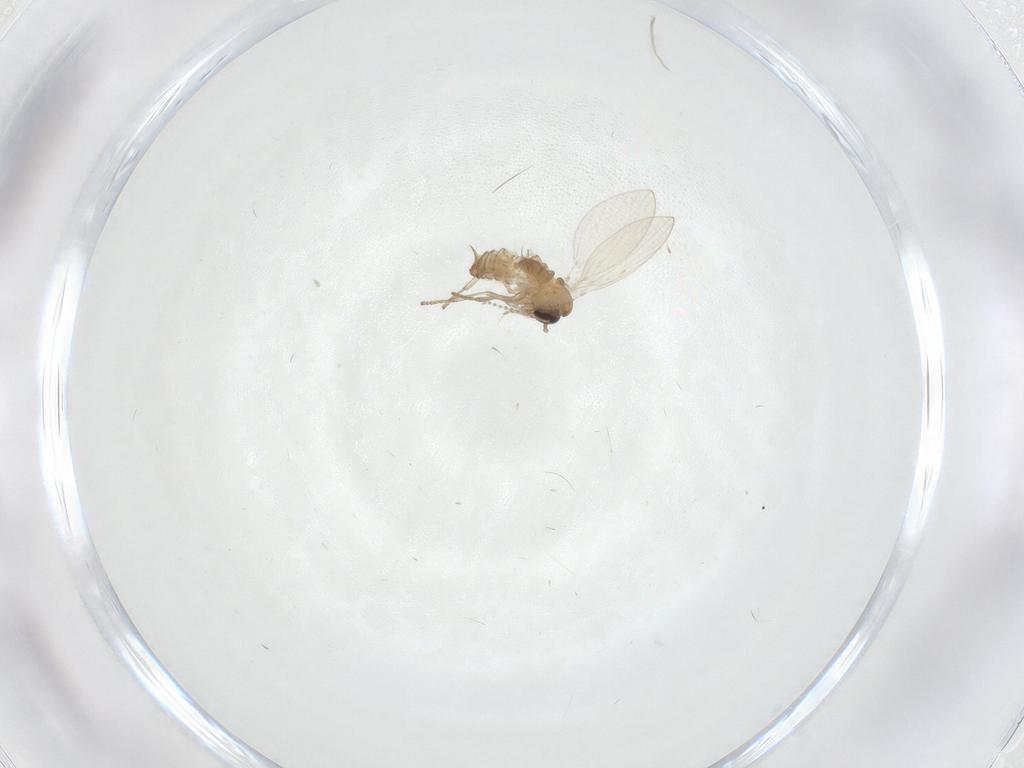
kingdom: Animalia
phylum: Arthropoda
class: Insecta
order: Diptera
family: Psychodidae
